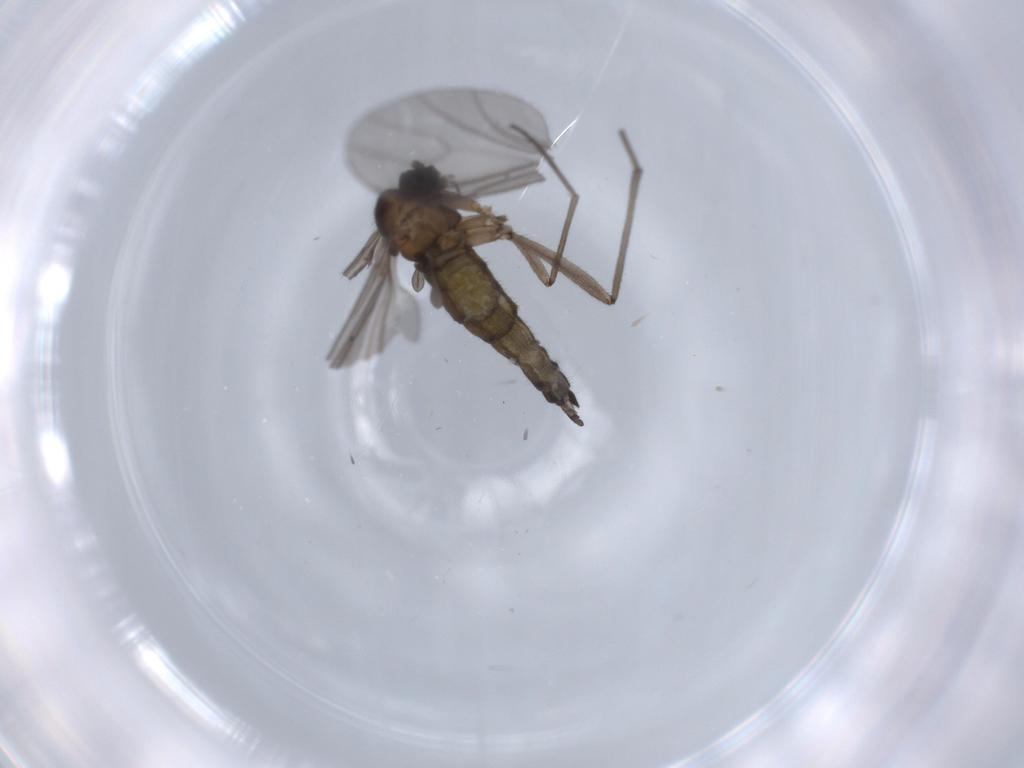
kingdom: Animalia
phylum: Arthropoda
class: Insecta
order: Diptera
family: Sciaridae
